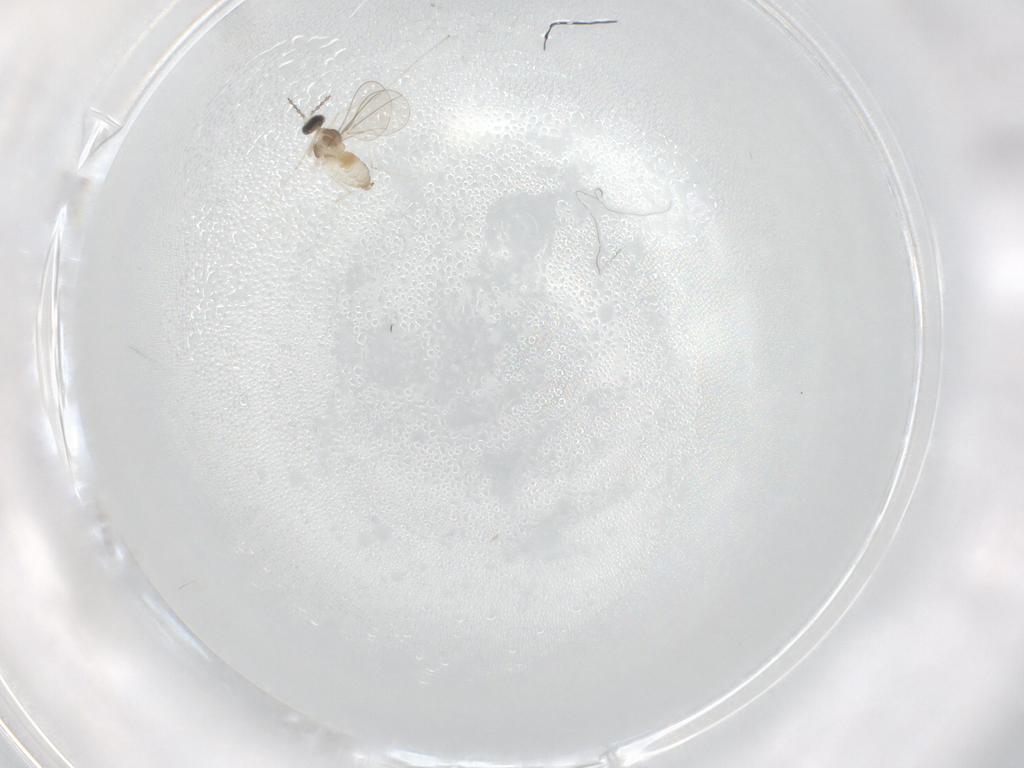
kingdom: Animalia
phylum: Arthropoda
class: Insecta
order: Diptera
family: Cecidomyiidae
